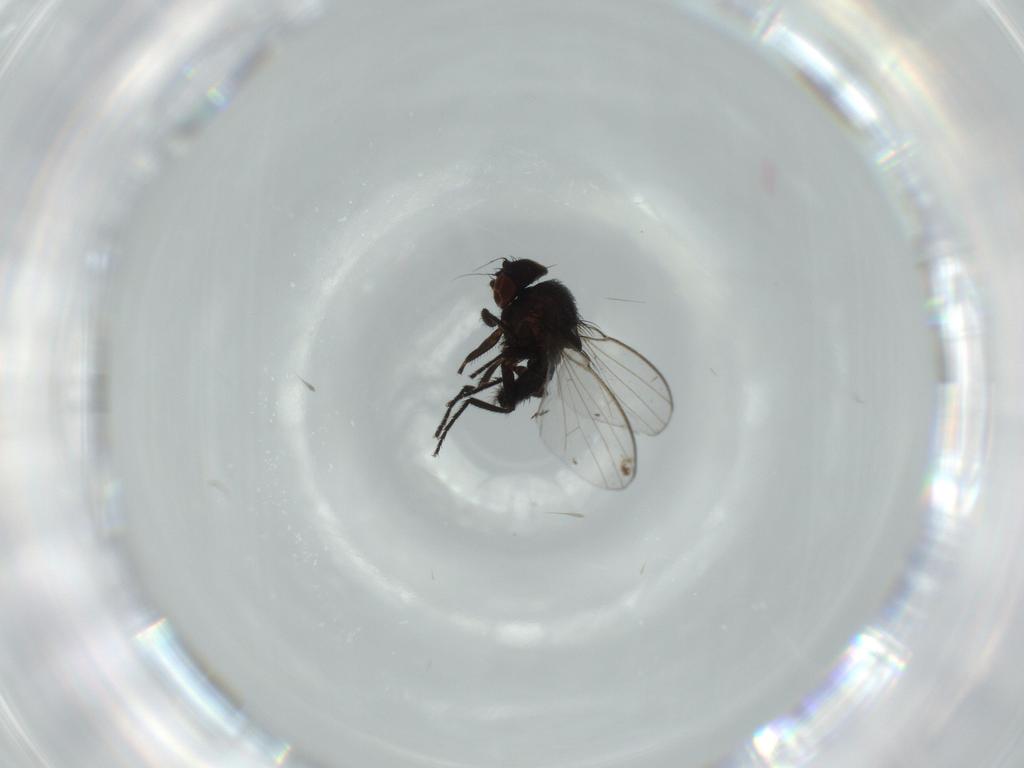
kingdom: Animalia
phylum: Arthropoda
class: Insecta
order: Diptera
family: Milichiidae
